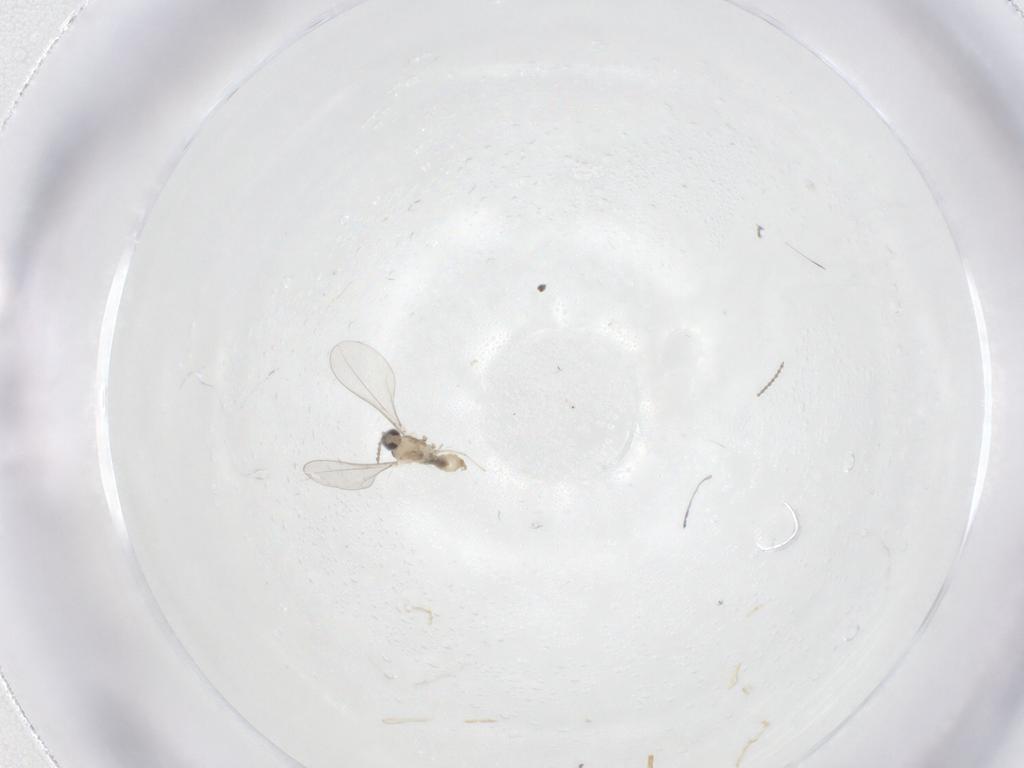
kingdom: Animalia
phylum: Arthropoda
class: Insecta
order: Diptera
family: Cecidomyiidae
